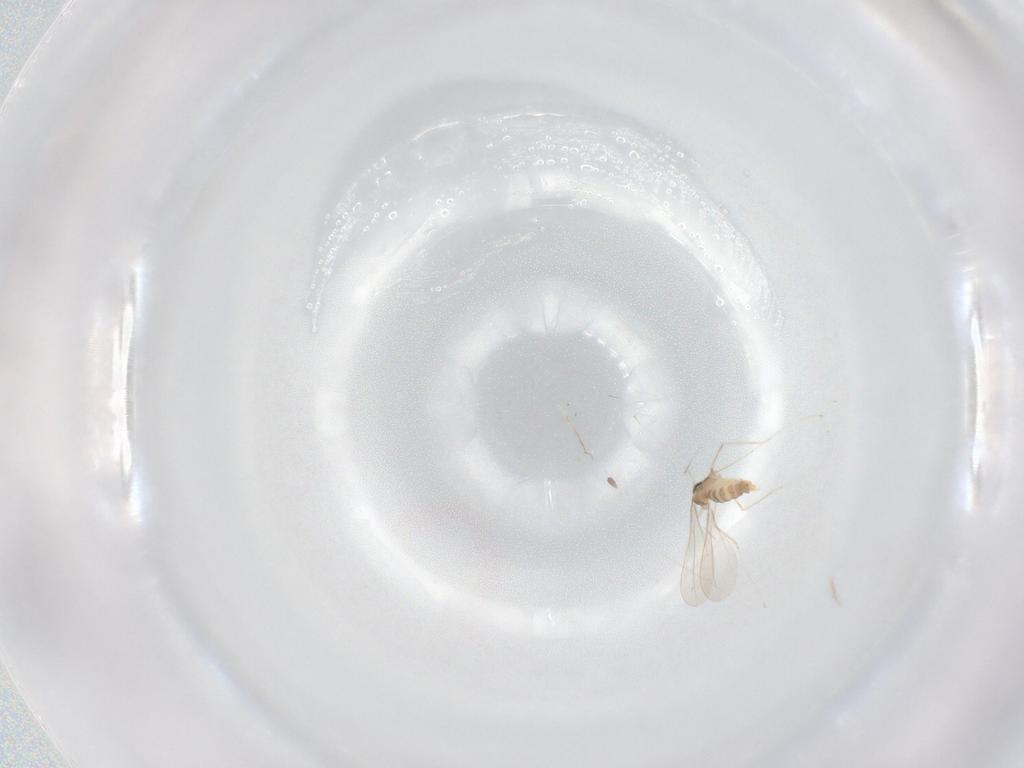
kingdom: Animalia
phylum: Arthropoda
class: Insecta
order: Diptera
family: Cecidomyiidae
